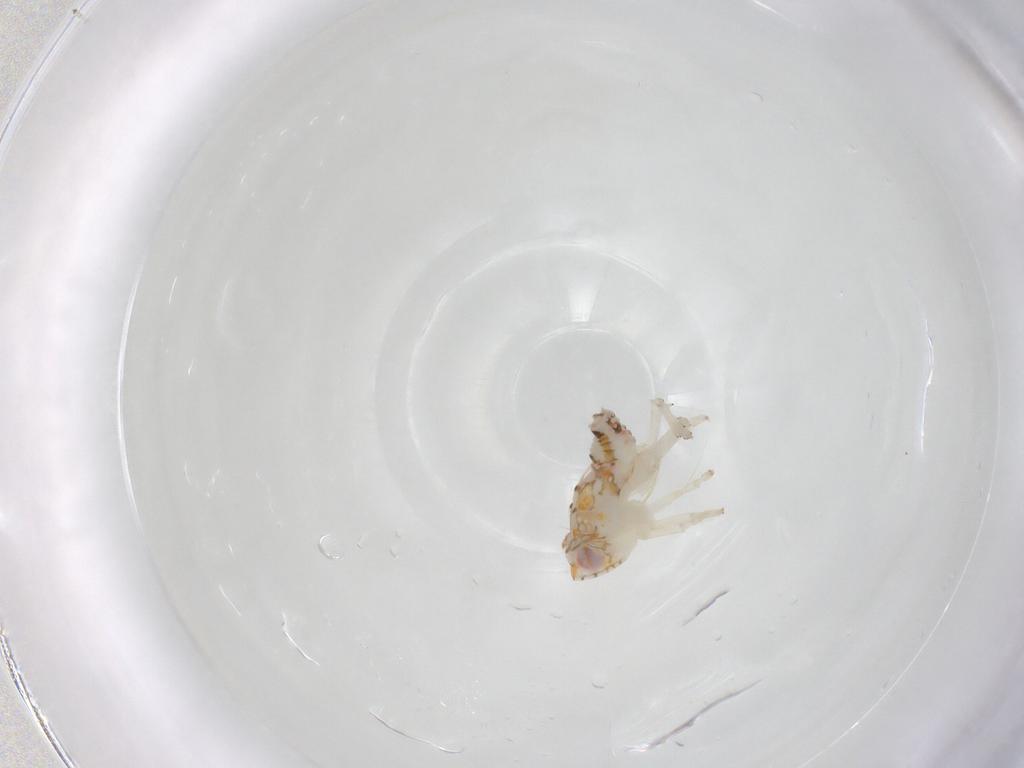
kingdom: Animalia
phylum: Arthropoda
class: Insecta
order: Hemiptera
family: Nogodinidae
